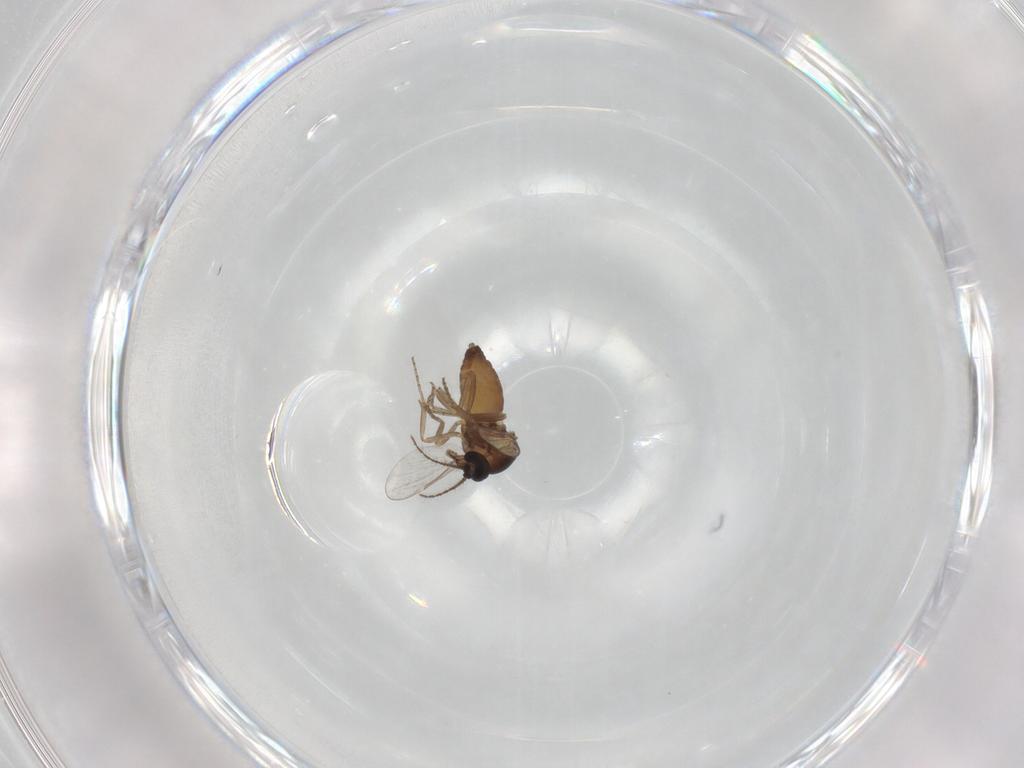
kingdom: Animalia
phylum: Arthropoda
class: Insecta
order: Diptera
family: Ceratopogonidae
